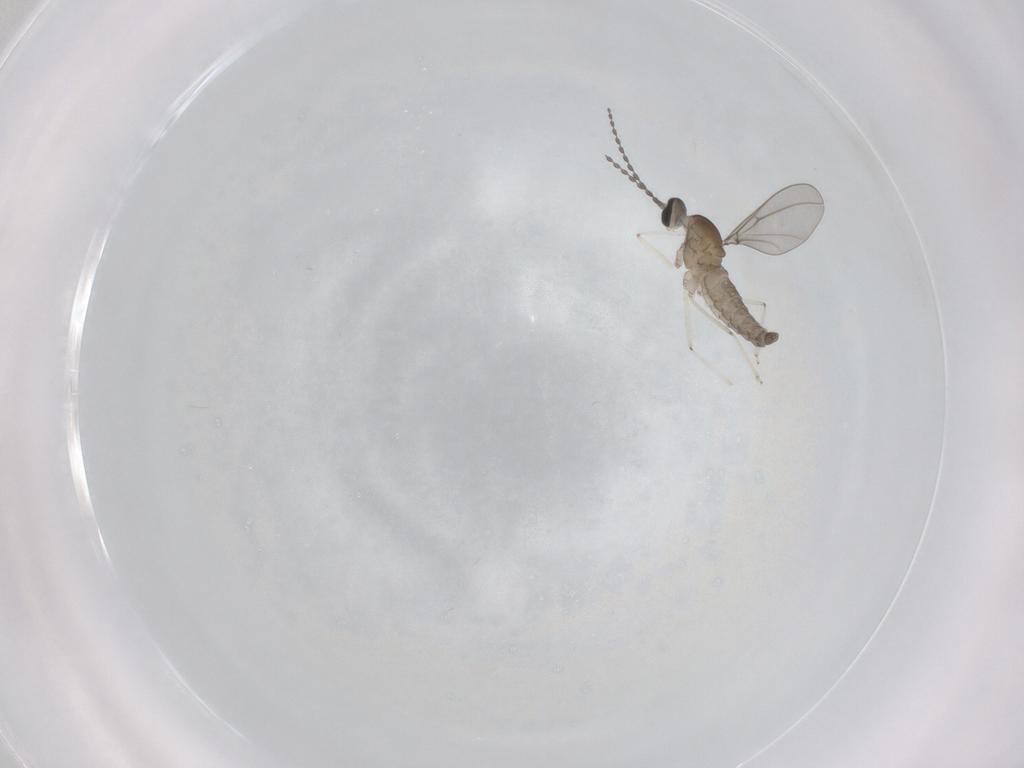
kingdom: Animalia
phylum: Arthropoda
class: Insecta
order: Diptera
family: Cecidomyiidae
